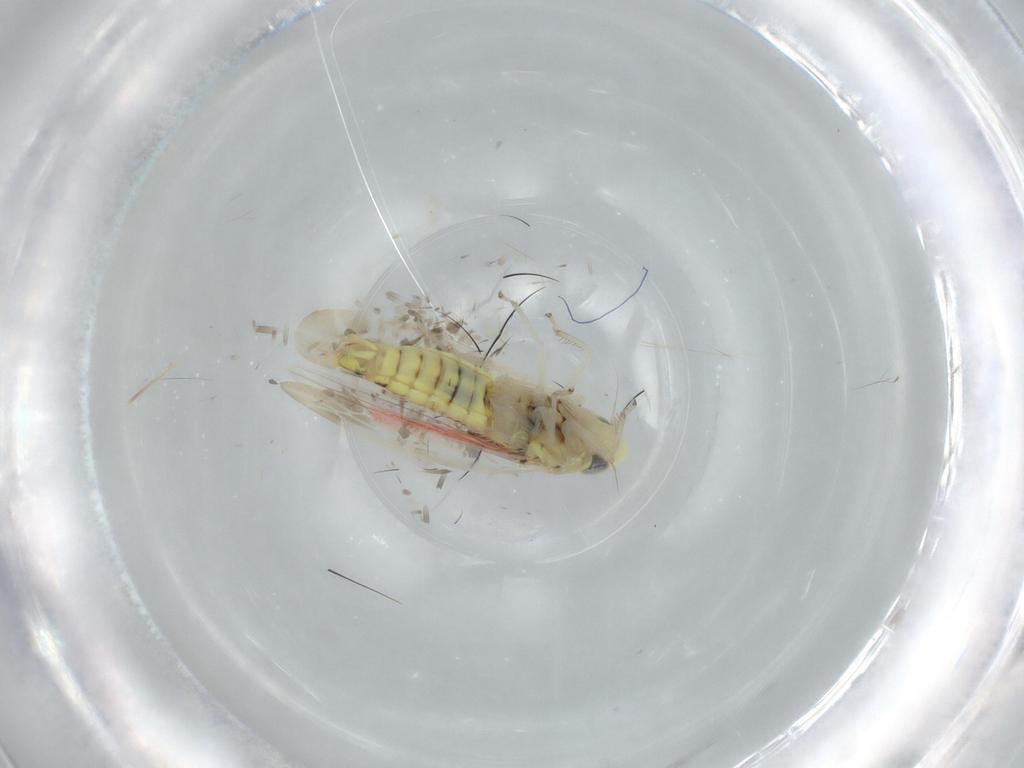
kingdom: Animalia
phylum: Arthropoda
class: Insecta
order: Hemiptera
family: Cicadellidae
